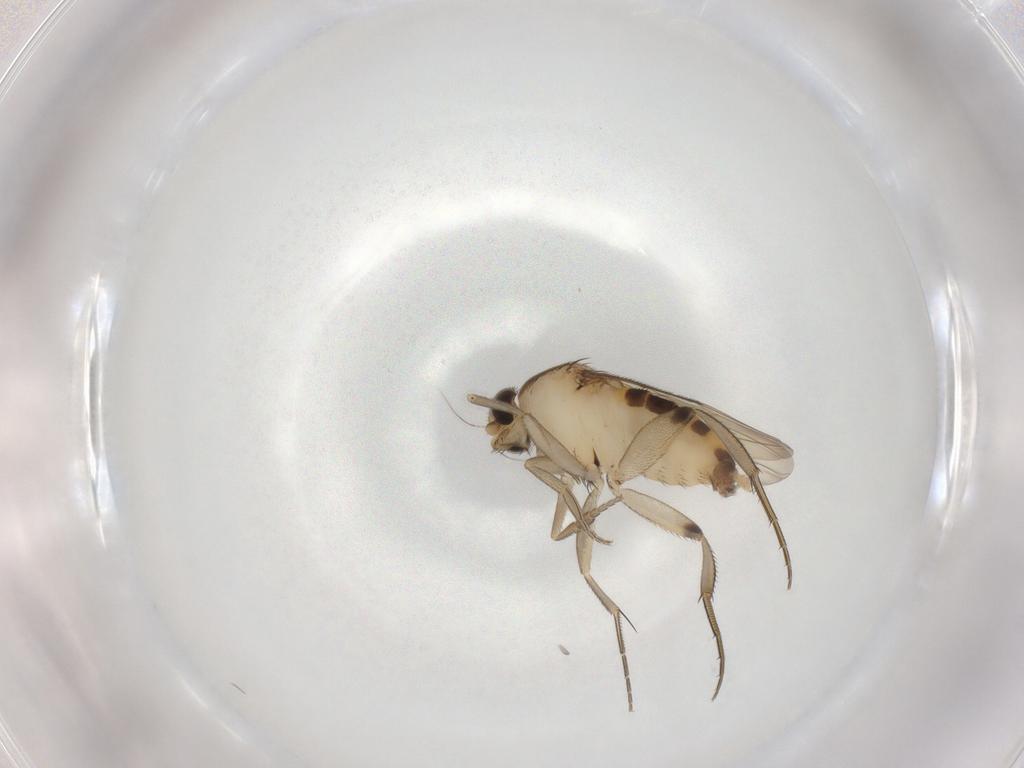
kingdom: Animalia
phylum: Arthropoda
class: Insecta
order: Diptera
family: Phoridae
